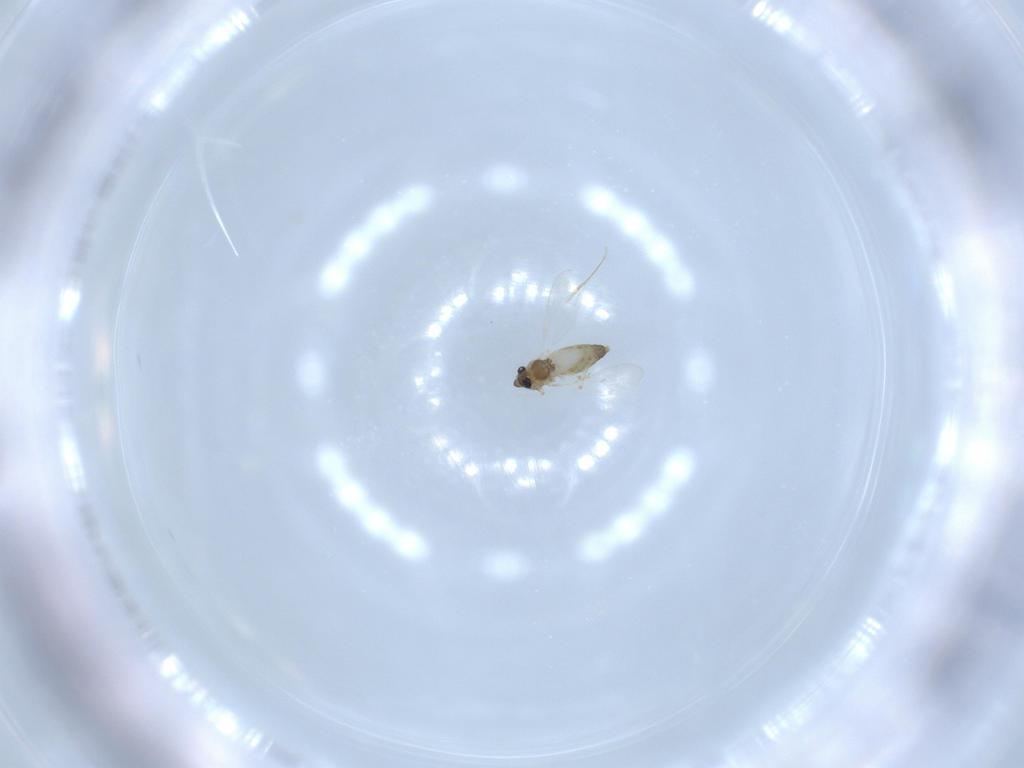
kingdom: Animalia
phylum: Arthropoda
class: Insecta
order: Diptera
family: Chironomidae
